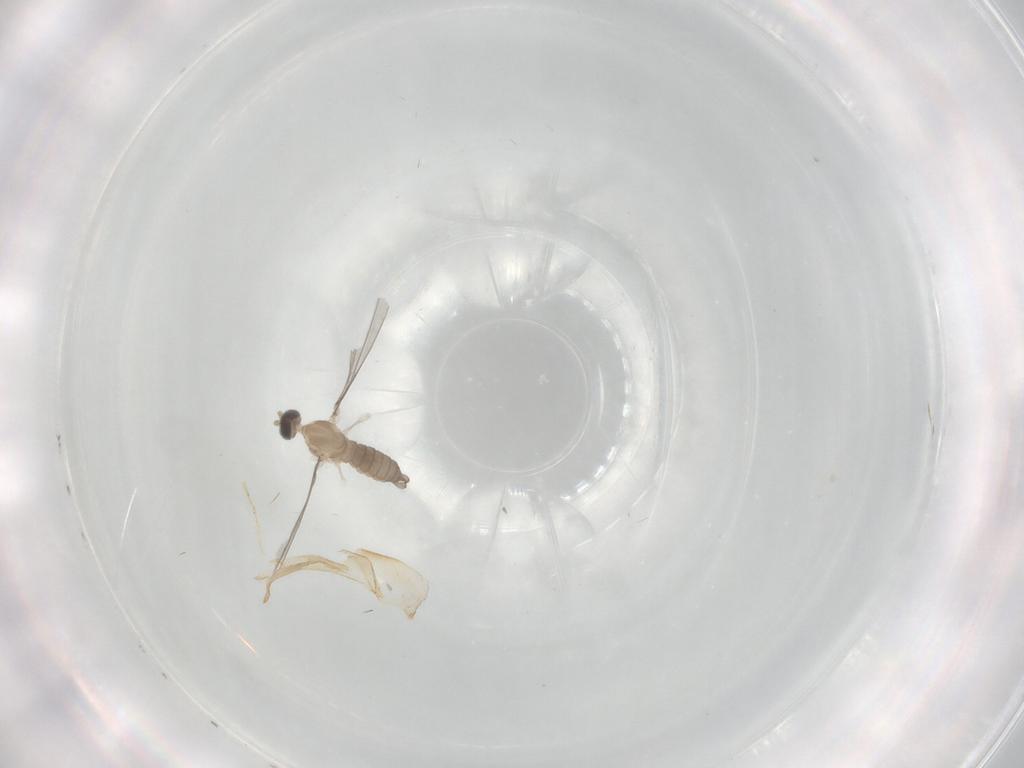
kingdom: Animalia
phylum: Arthropoda
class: Insecta
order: Diptera
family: Cecidomyiidae
